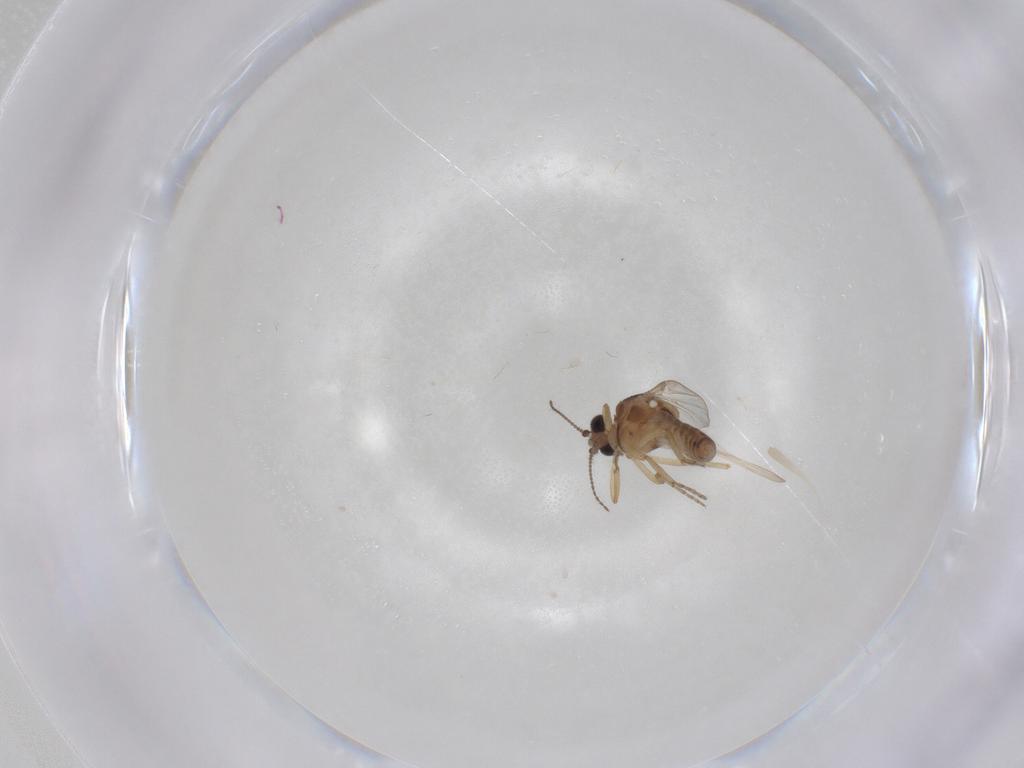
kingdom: Animalia
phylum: Arthropoda
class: Insecta
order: Diptera
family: Ceratopogonidae
